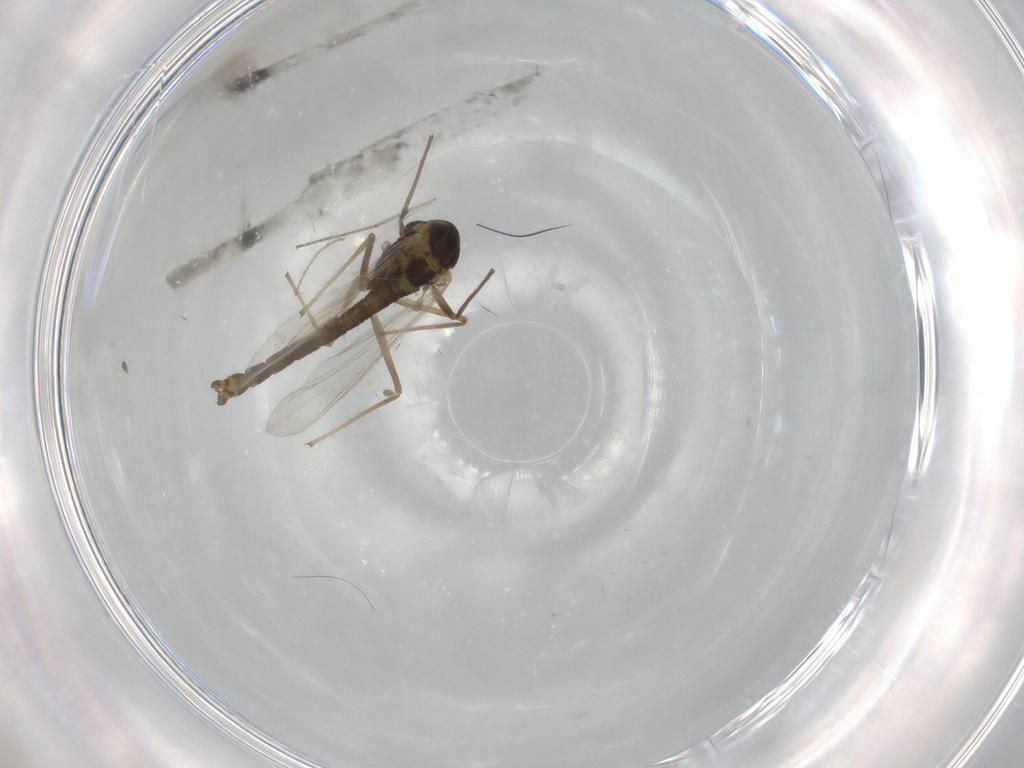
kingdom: Animalia
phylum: Arthropoda
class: Insecta
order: Diptera
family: Chironomidae
